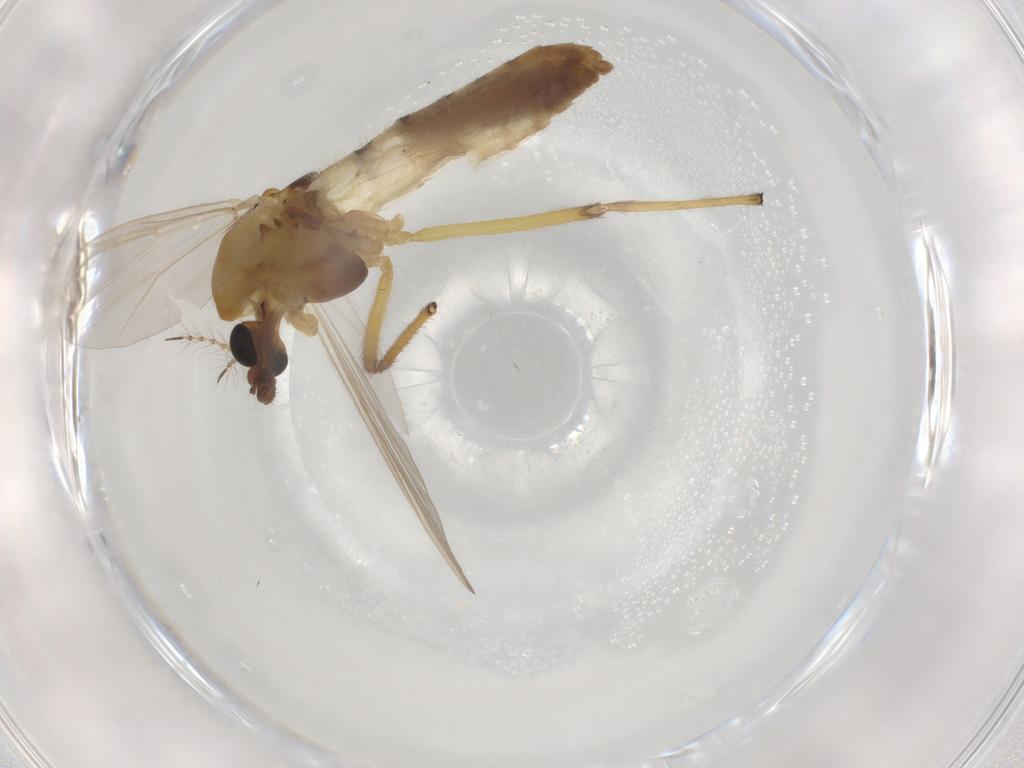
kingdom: Animalia
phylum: Arthropoda
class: Insecta
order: Diptera
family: Chironomidae
